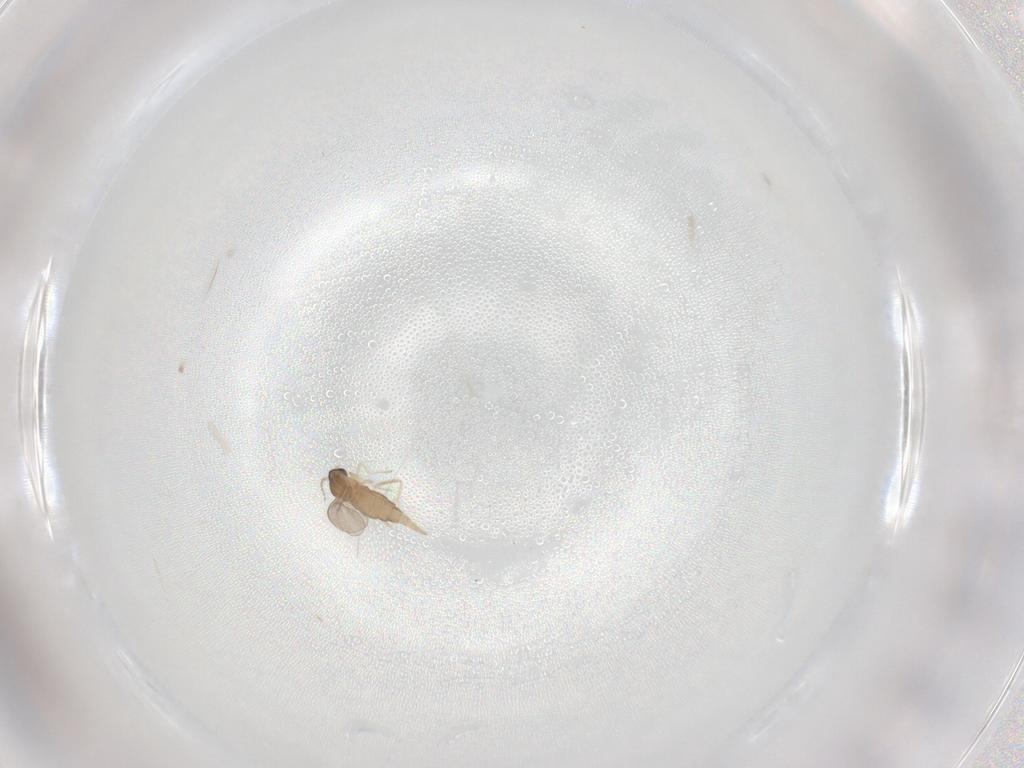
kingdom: Animalia
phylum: Arthropoda
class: Insecta
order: Diptera
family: Cecidomyiidae
